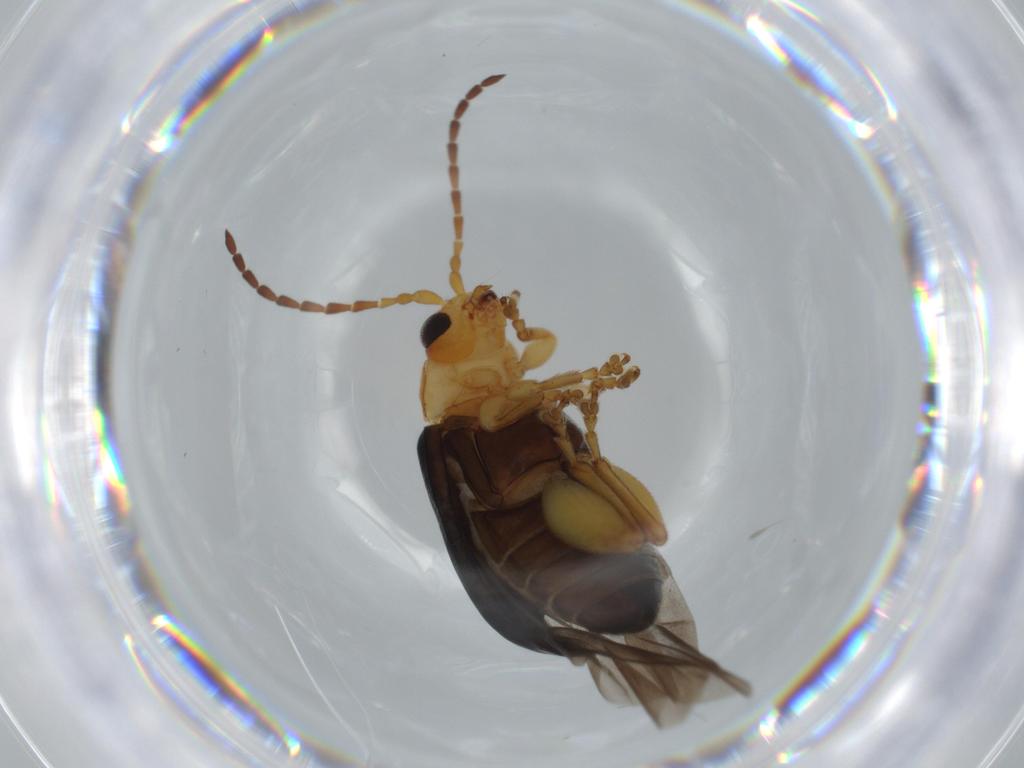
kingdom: Animalia
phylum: Arthropoda
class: Insecta
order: Coleoptera
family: Chrysomelidae
